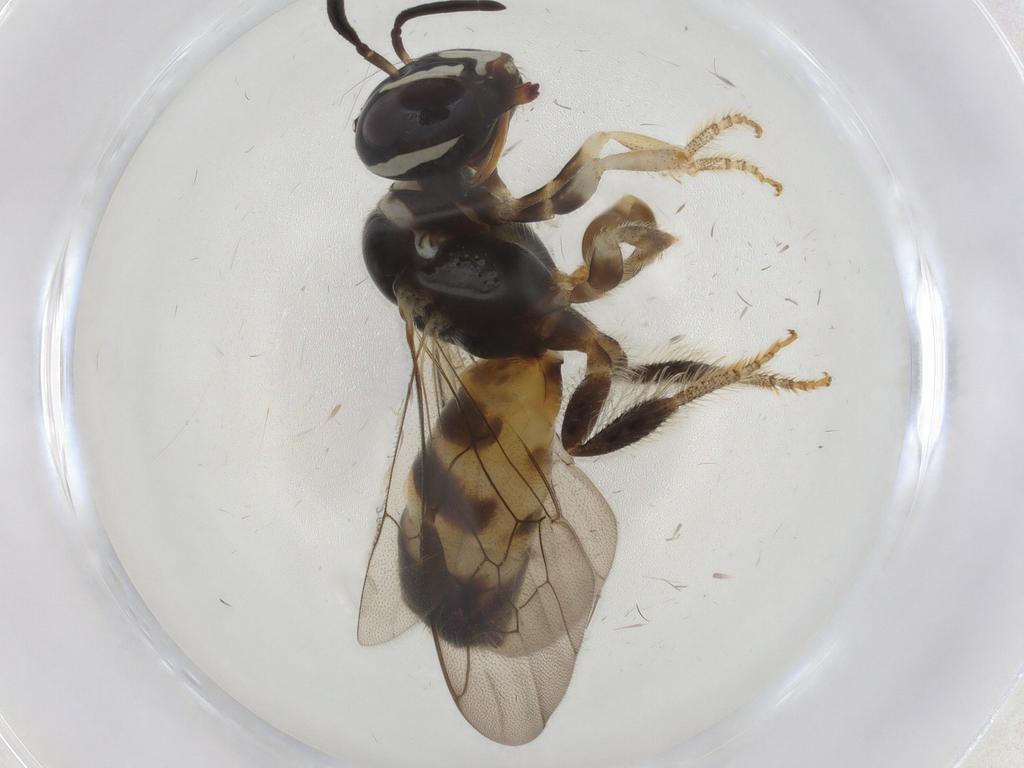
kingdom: Animalia
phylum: Arthropoda
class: Insecta
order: Hymenoptera
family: Apidae
